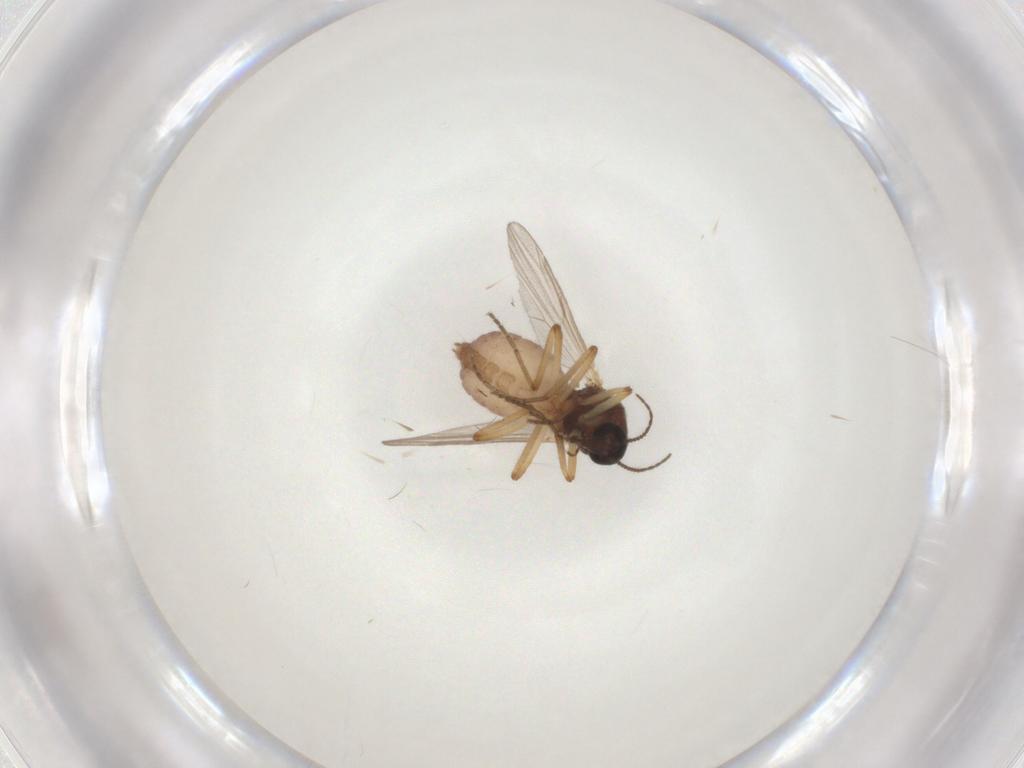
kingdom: Animalia
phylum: Arthropoda
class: Insecta
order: Diptera
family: Ceratopogonidae
